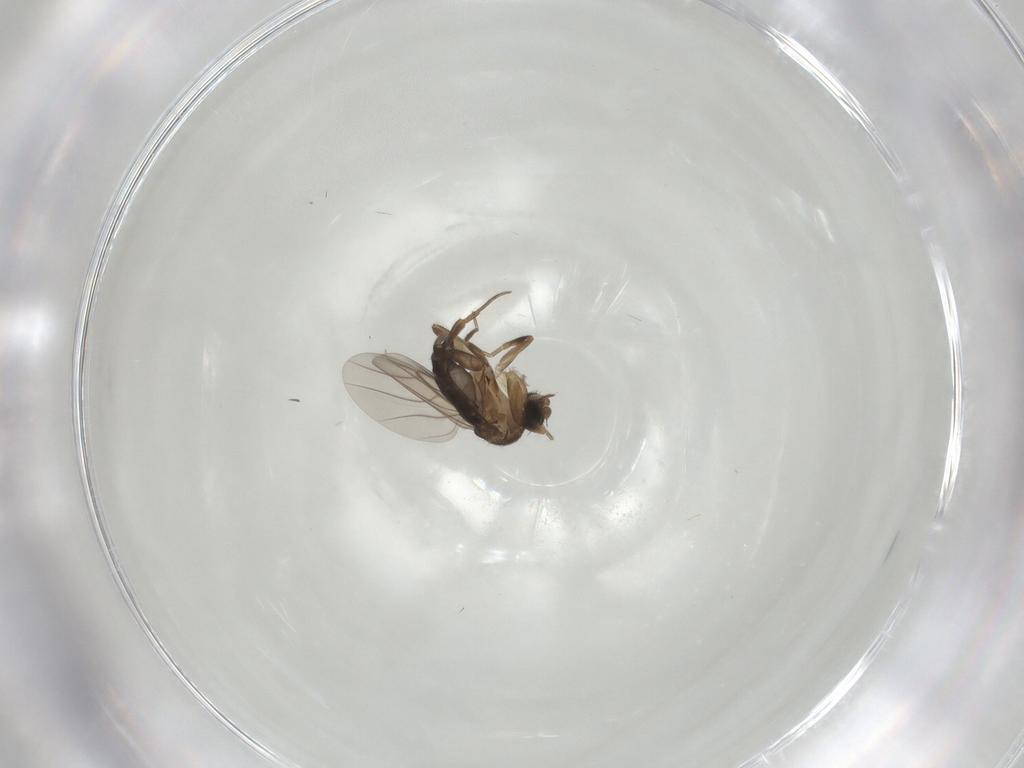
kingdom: Animalia
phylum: Arthropoda
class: Insecta
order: Diptera
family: Phoridae
